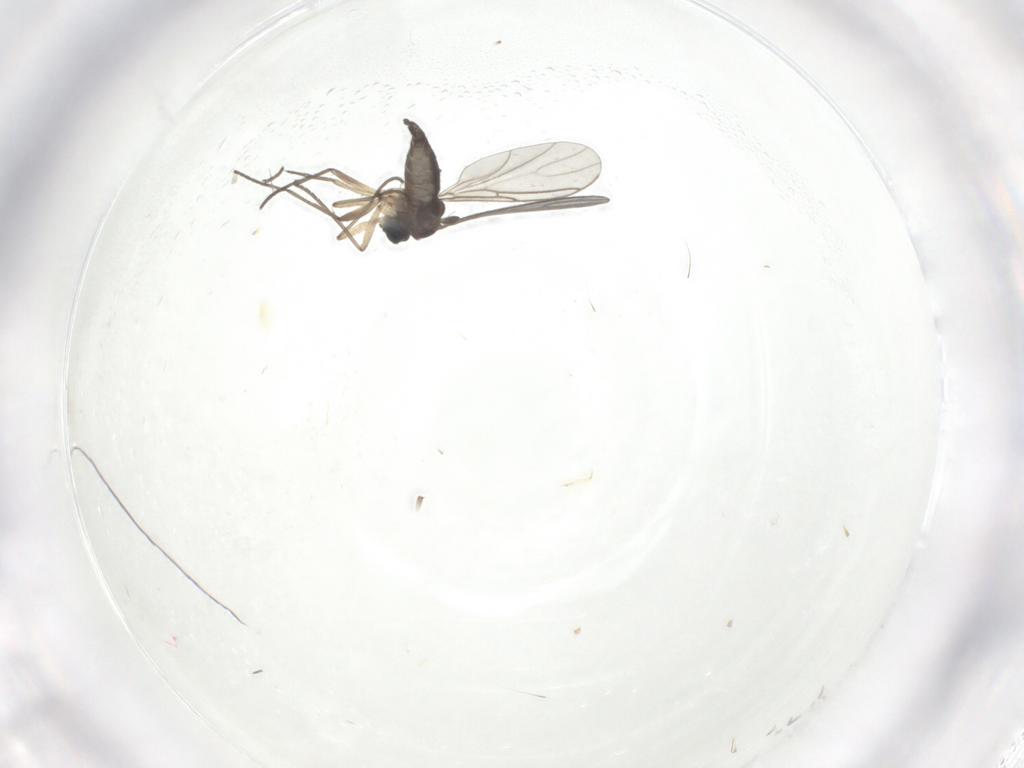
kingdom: Animalia
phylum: Arthropoda
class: Insecta
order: Diptera
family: Sciaridae
